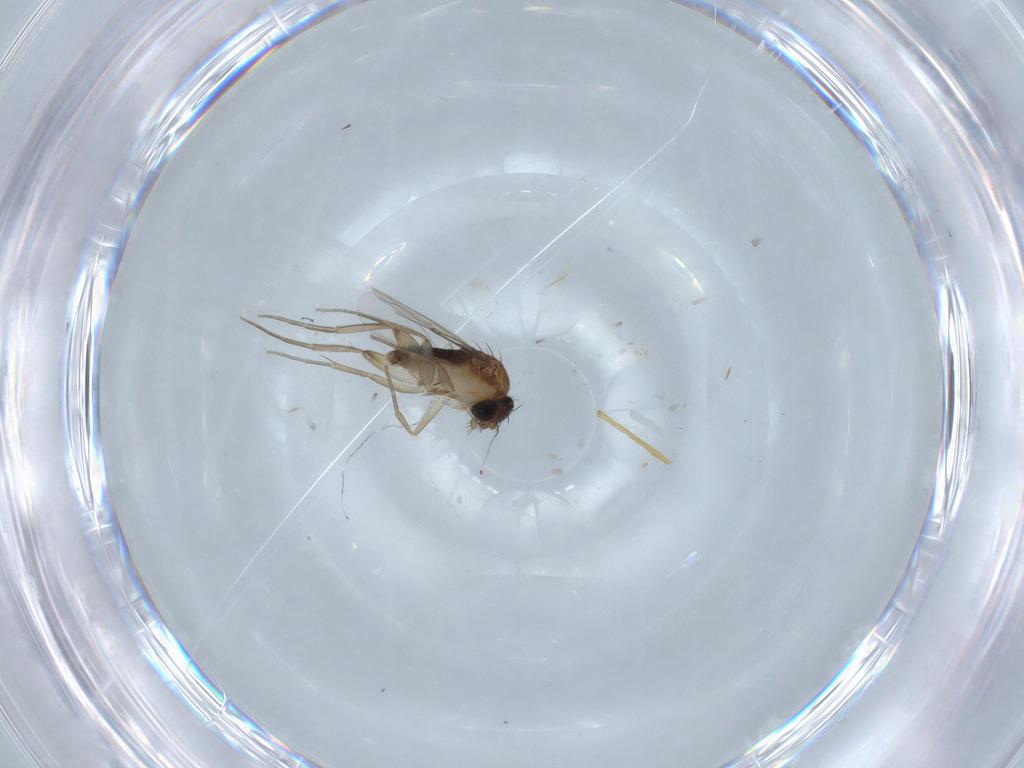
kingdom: Animalia
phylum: Arthropoda
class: Insecta
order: Diptera
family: Phoridae
